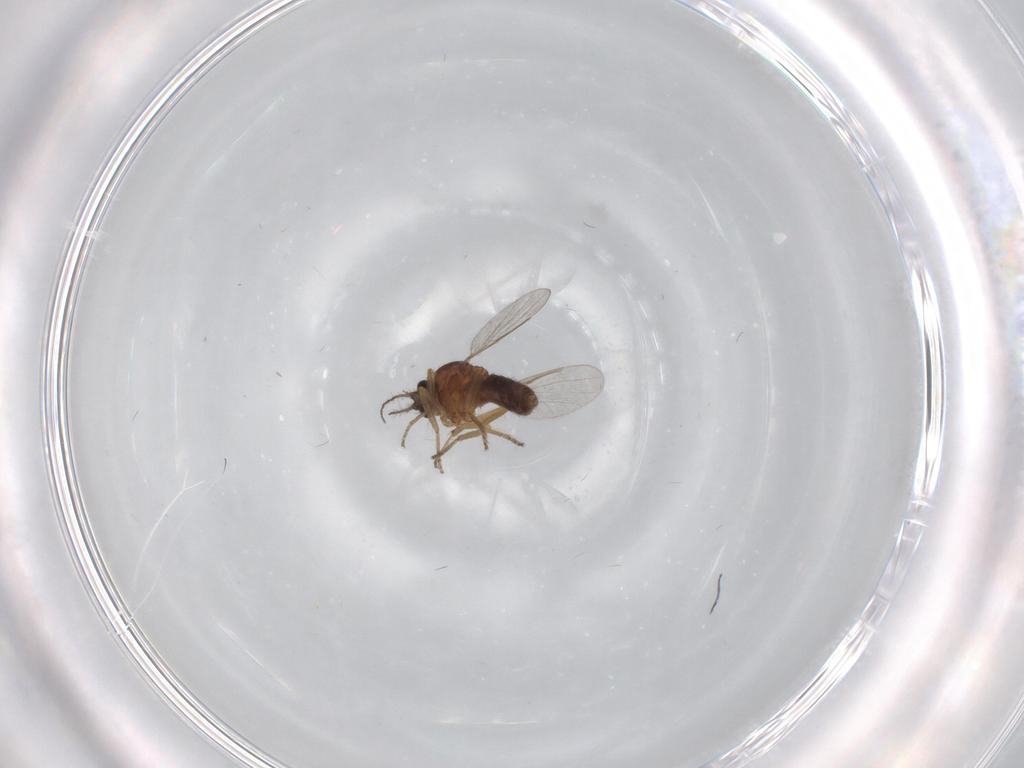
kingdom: Animalia
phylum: Arthropoda
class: Insecta
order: Diptera
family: Ceratopogonidae
